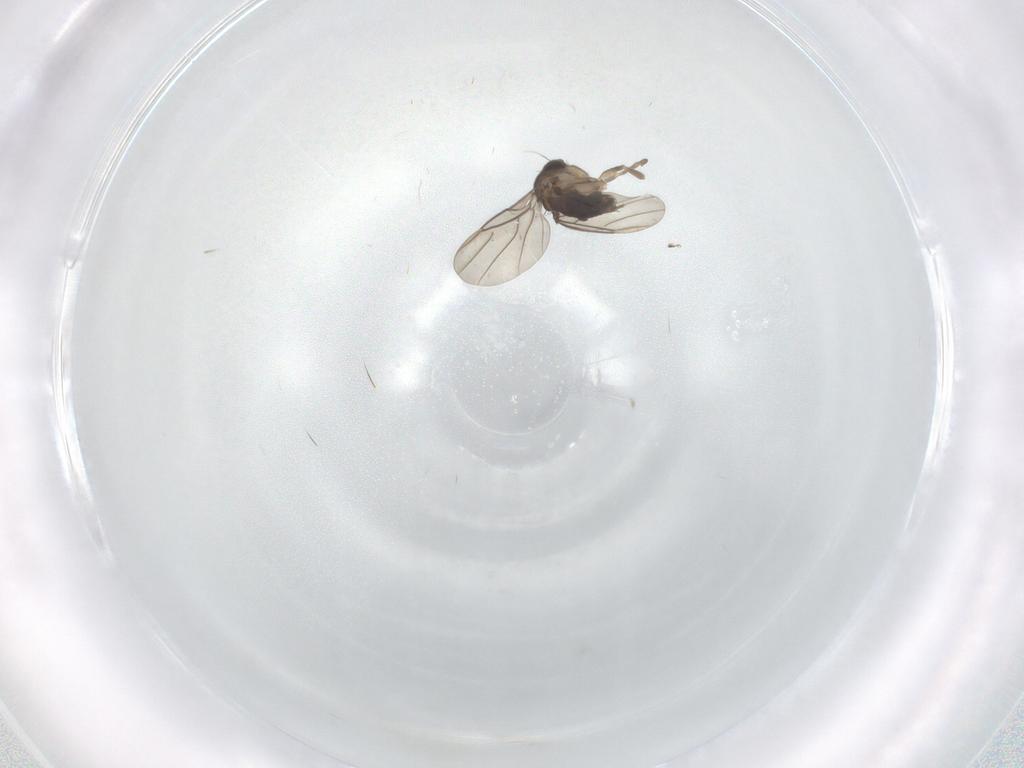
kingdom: Animalia
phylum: Arthropoda
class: Insecta
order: Diptera
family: Phoridae
